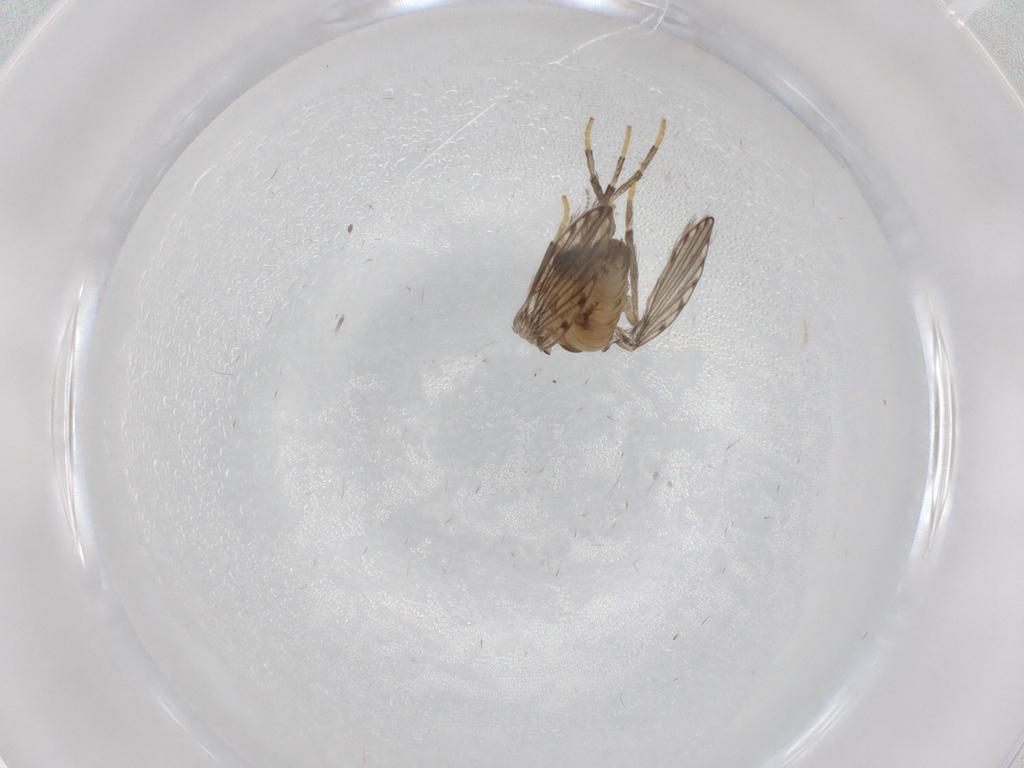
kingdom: Animalia
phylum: Arthropoda
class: Insecta
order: Diptera
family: Psychodidae
